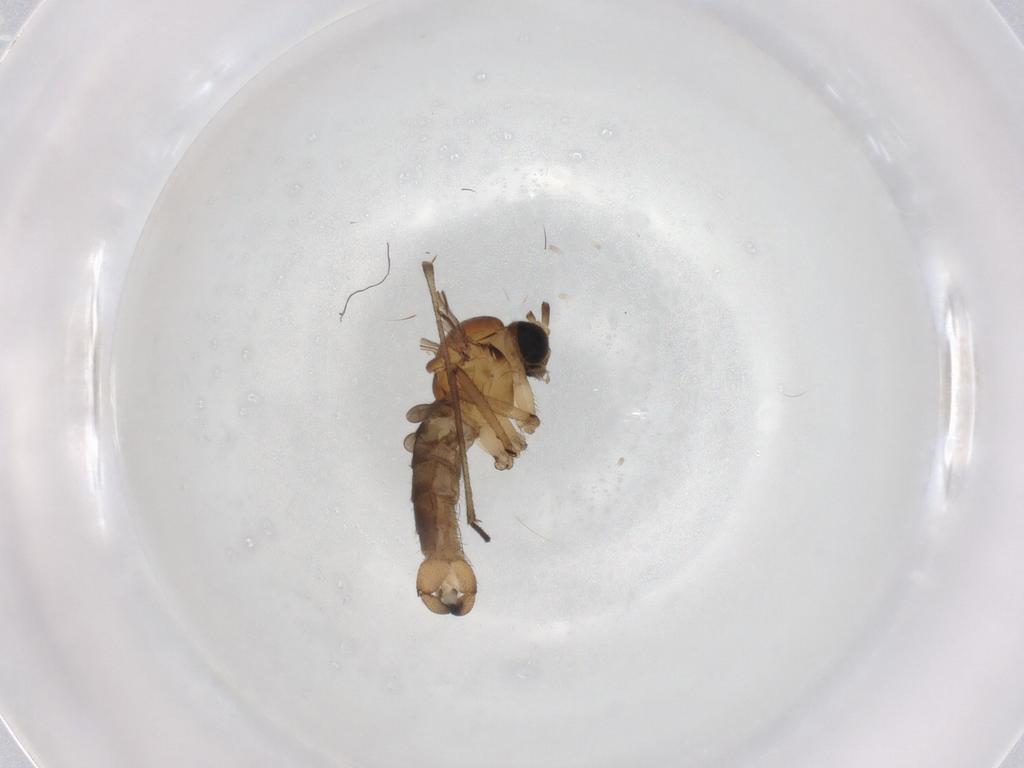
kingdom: Animalia
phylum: Arthropoda
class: Insecta
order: Diptera
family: Sciaridae
